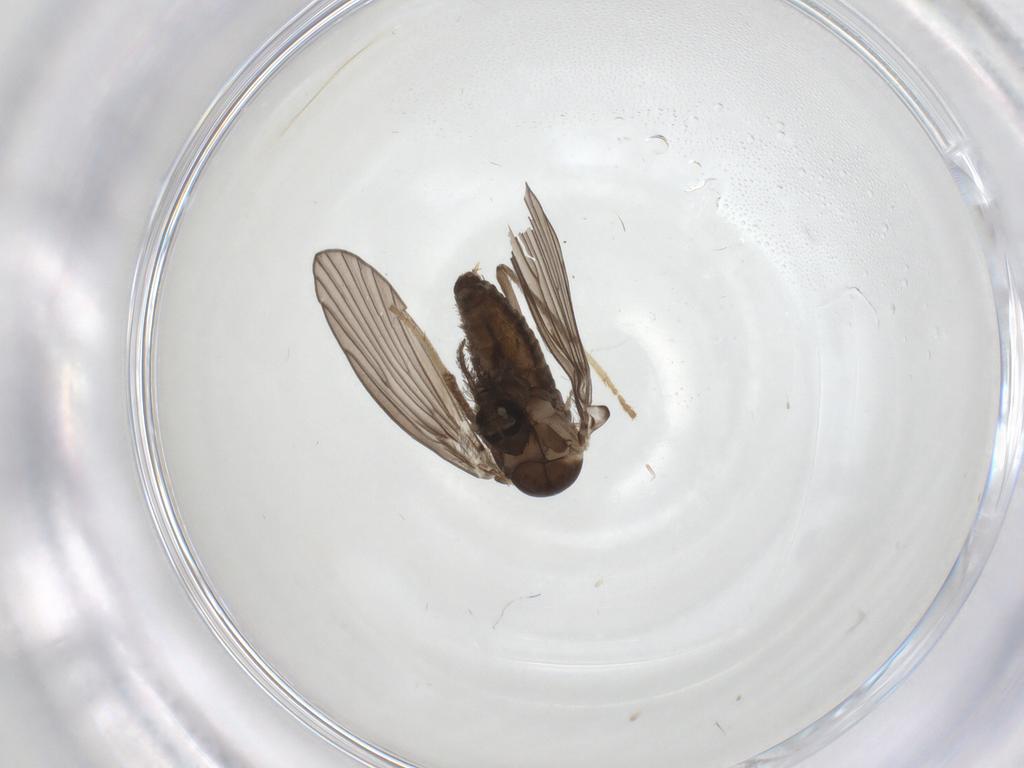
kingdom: Animalia
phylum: Arthropoda
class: Insecta
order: Diptera
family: Psychodidae
